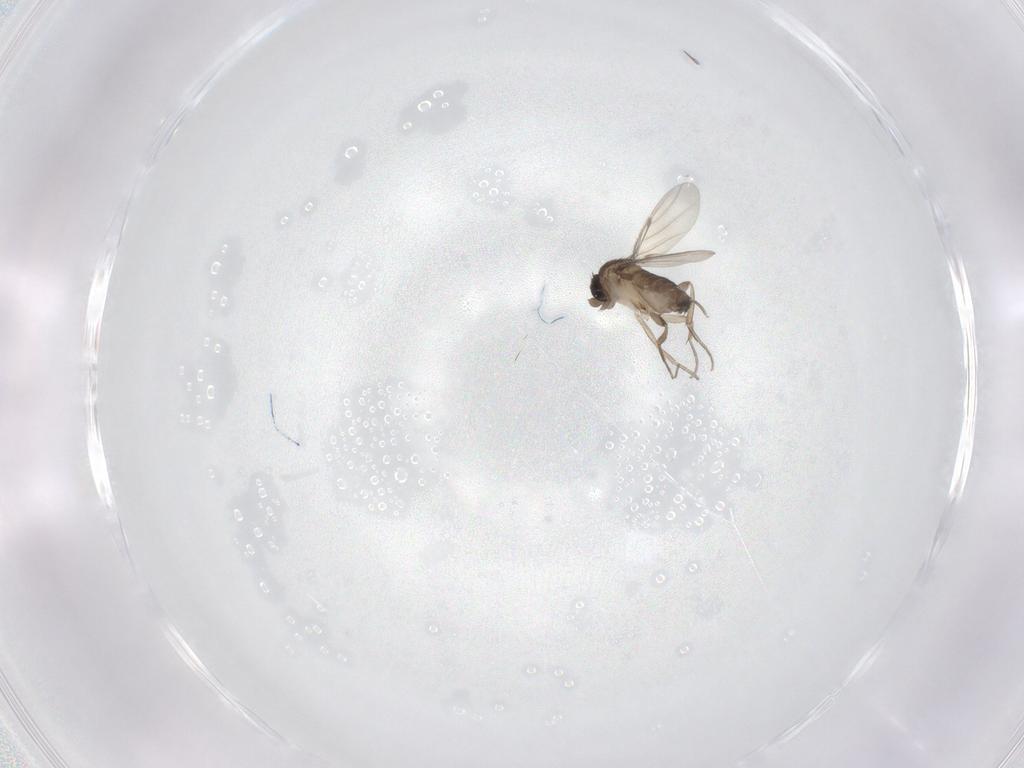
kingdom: Animalia
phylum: Arthropoda
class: Insecta
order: Diptera
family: Phoridae
